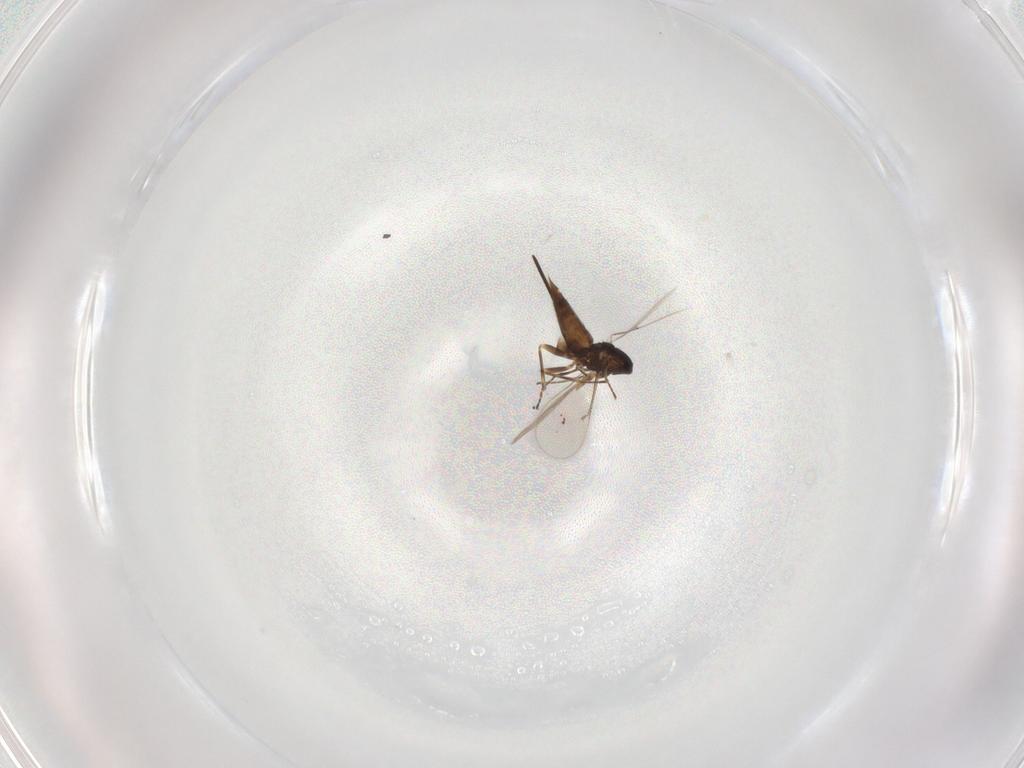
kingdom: Animalia
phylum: Arthropoda
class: Insecta
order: Hymenoptera
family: Eulophidae
